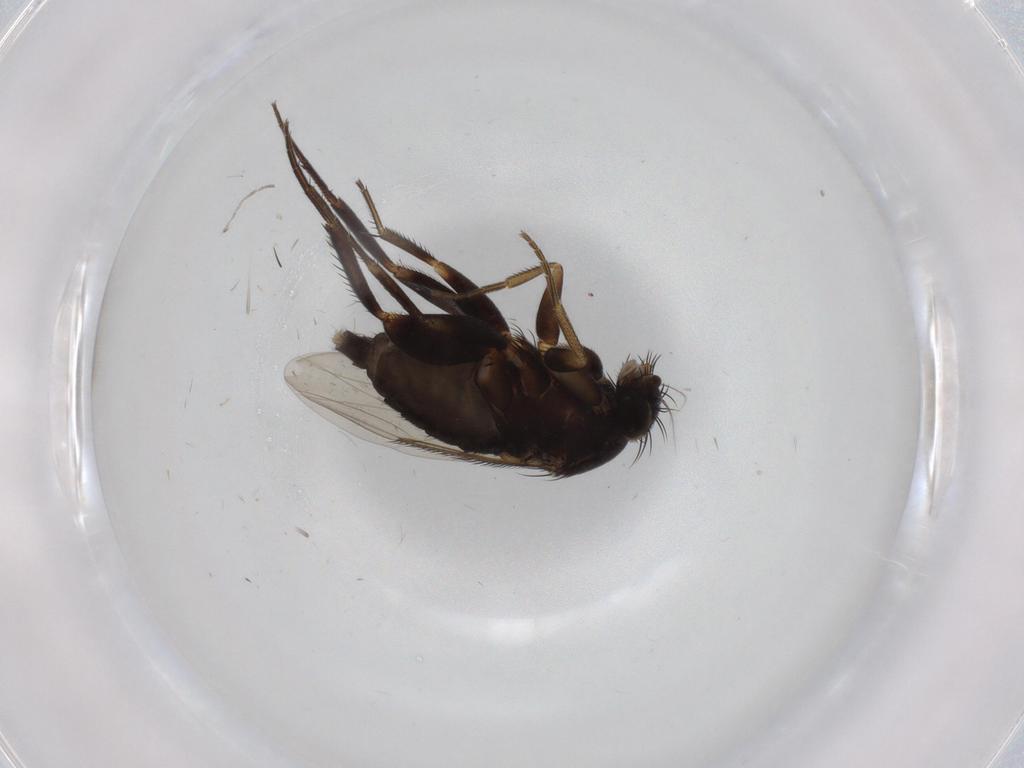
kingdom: Animalia
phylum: Arthropoda
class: Insecta
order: Diptera
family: Phoridae
